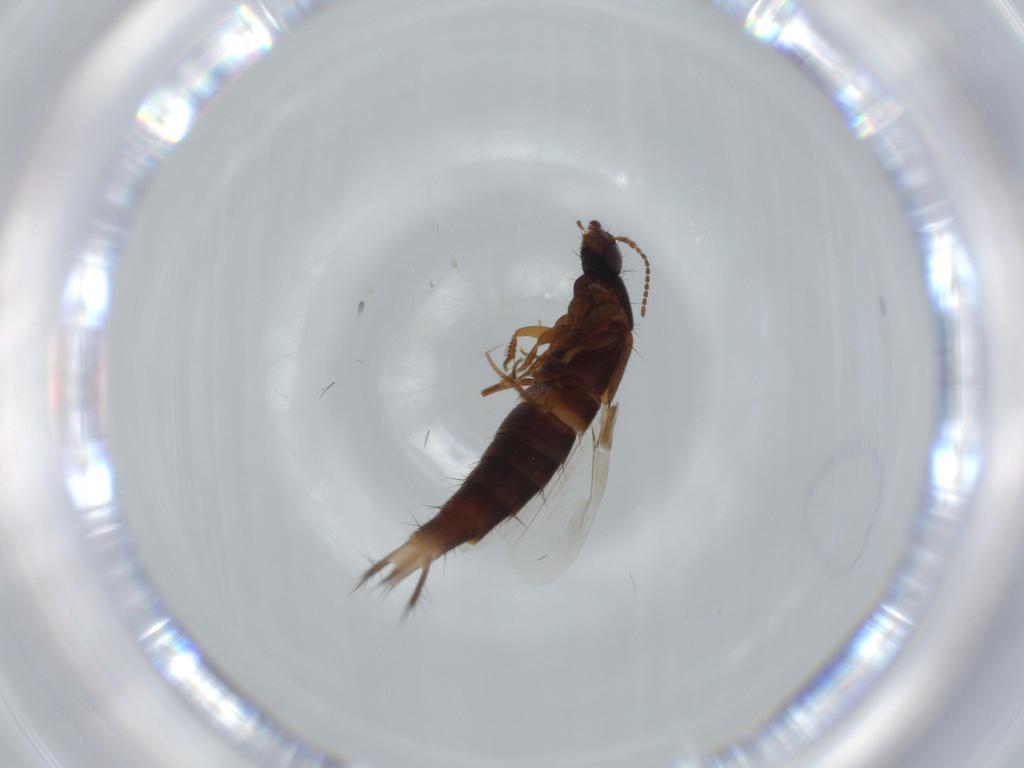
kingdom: Animalia
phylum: Arthropoda
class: Insecta
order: Coleoptera
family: Staphylinidae
